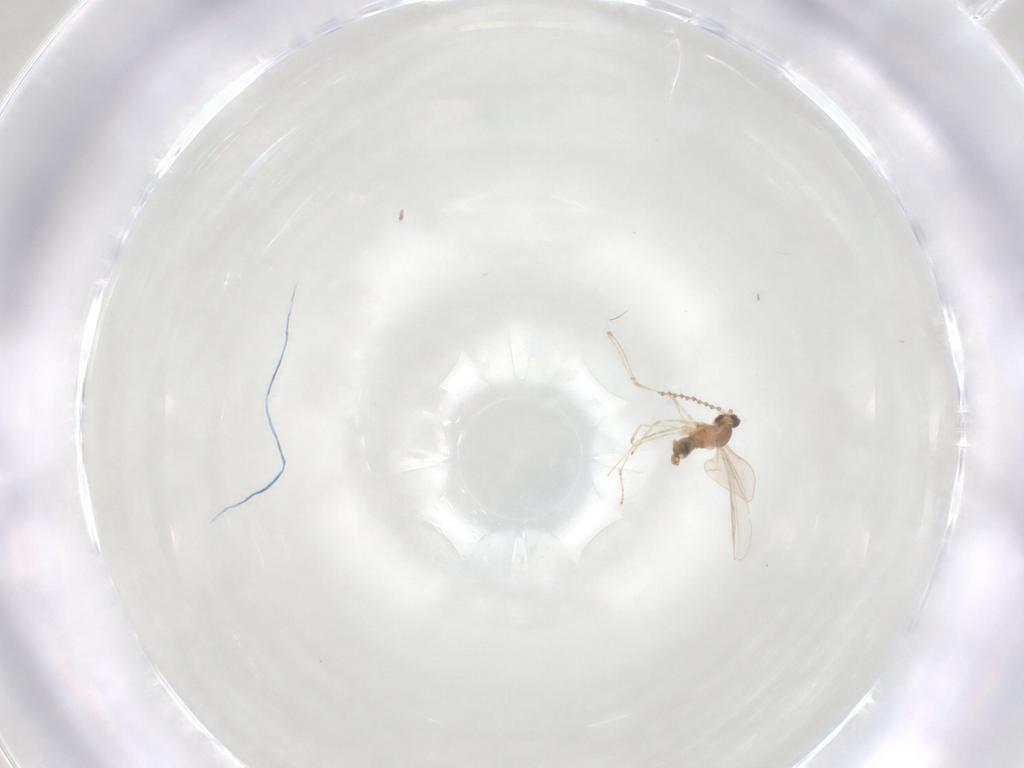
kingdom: Animalia
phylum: Arthropoda
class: Insecta
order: Diptera
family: Cecidomyiidae
